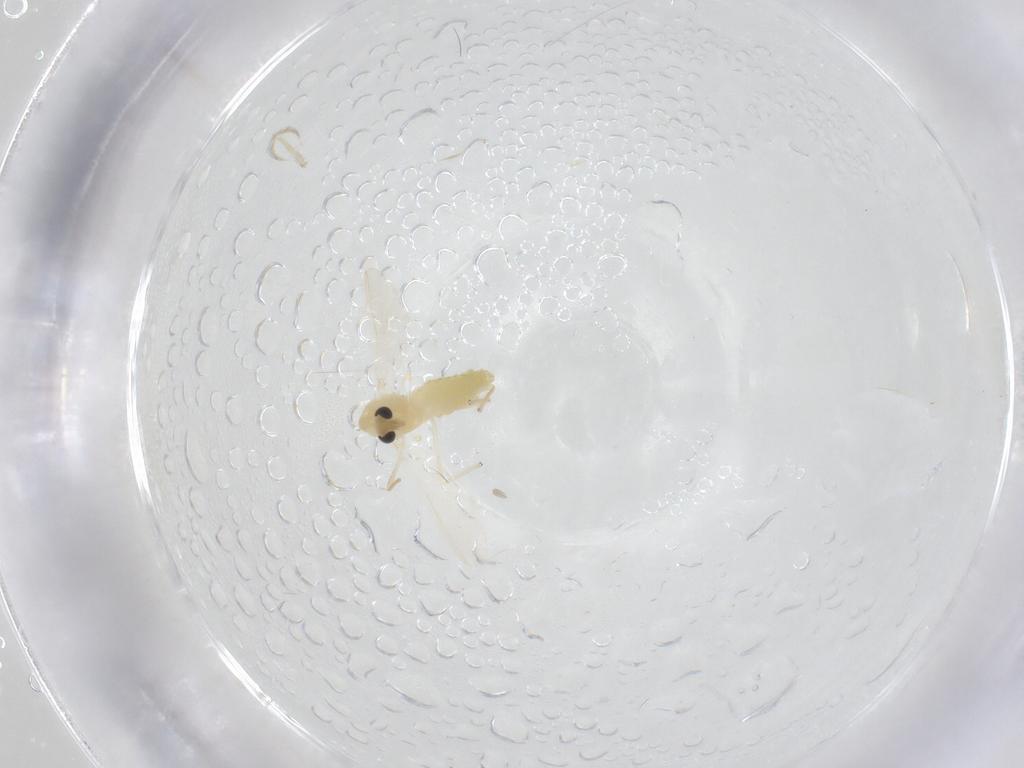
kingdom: Animalia
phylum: Arthropoda
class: Insecta
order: Diptera
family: Chironomidae
